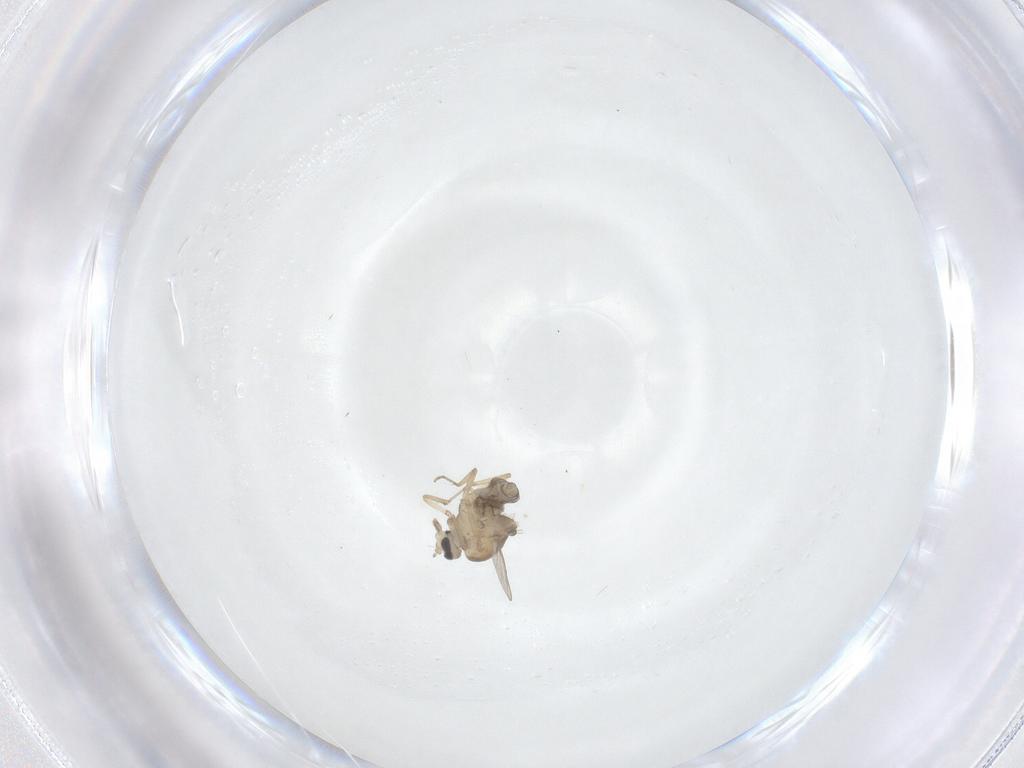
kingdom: Animalia
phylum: Arthropoda
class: Insecta
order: Diptera
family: Ceratopogonidae
